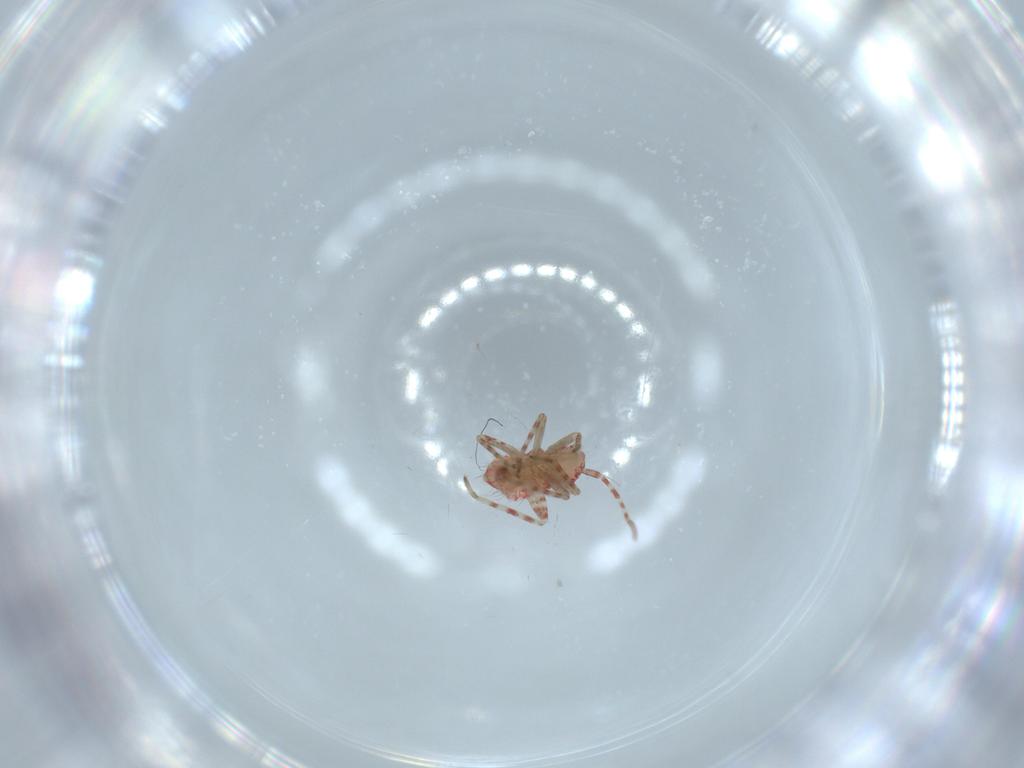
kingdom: Animalia
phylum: Arthropoda
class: Insecta
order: Hemiptera
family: Miridae
